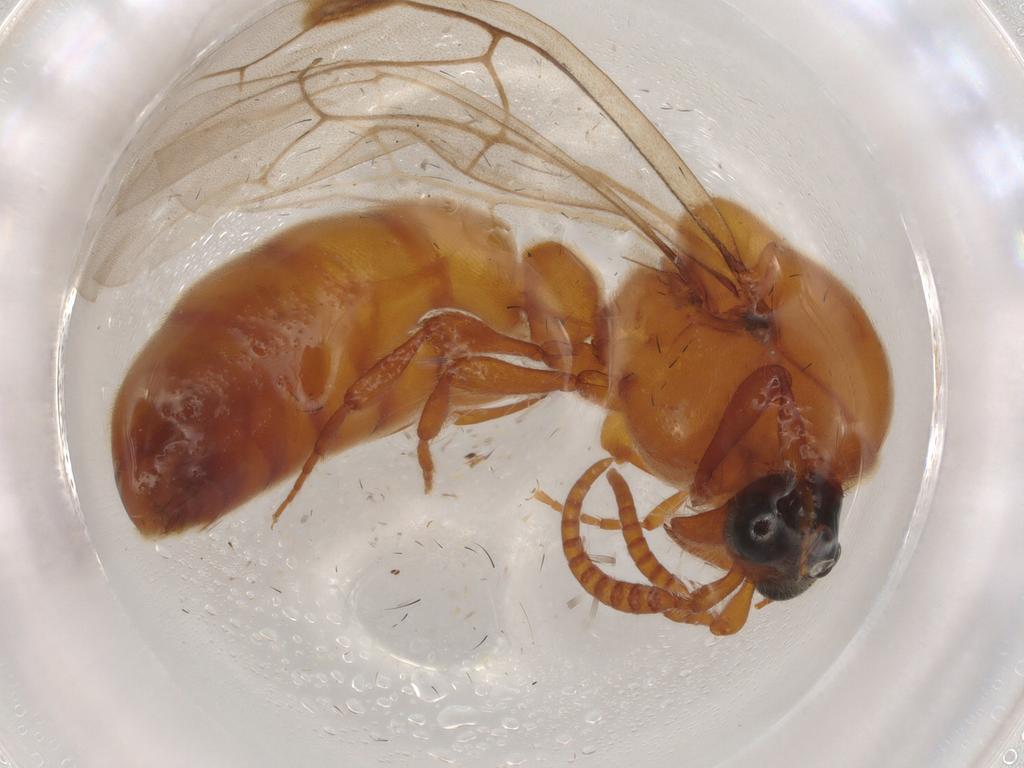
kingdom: Animalia
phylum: Arthropoda
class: Insecta
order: Hymenoptera
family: Formicidae
